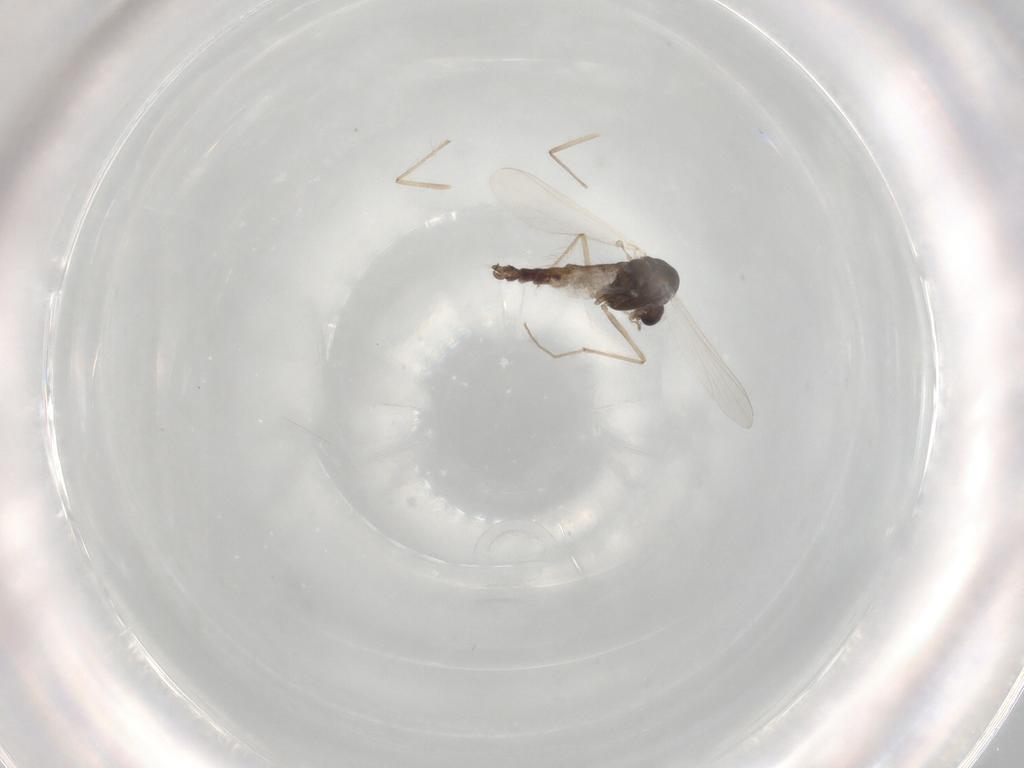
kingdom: Animalia
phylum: Arthropoda
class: Insecta
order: Diptera
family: Chironomidae
